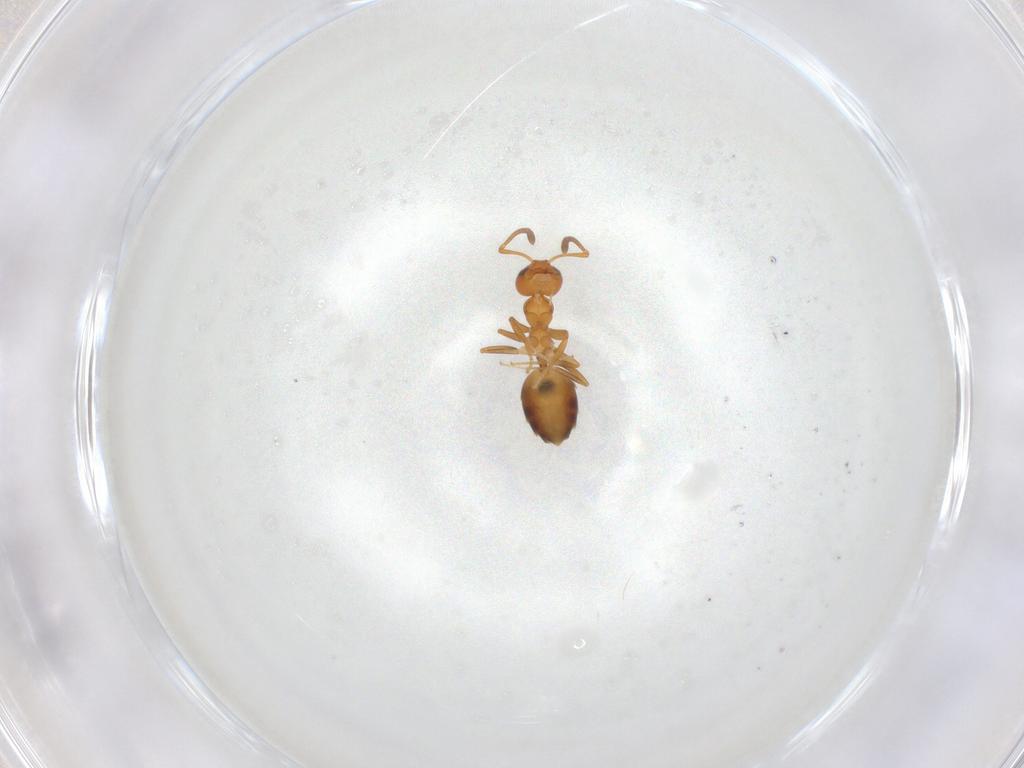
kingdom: Animalia
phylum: Arthropoda
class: Insecta
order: Hymenoptera
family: Formicidae
